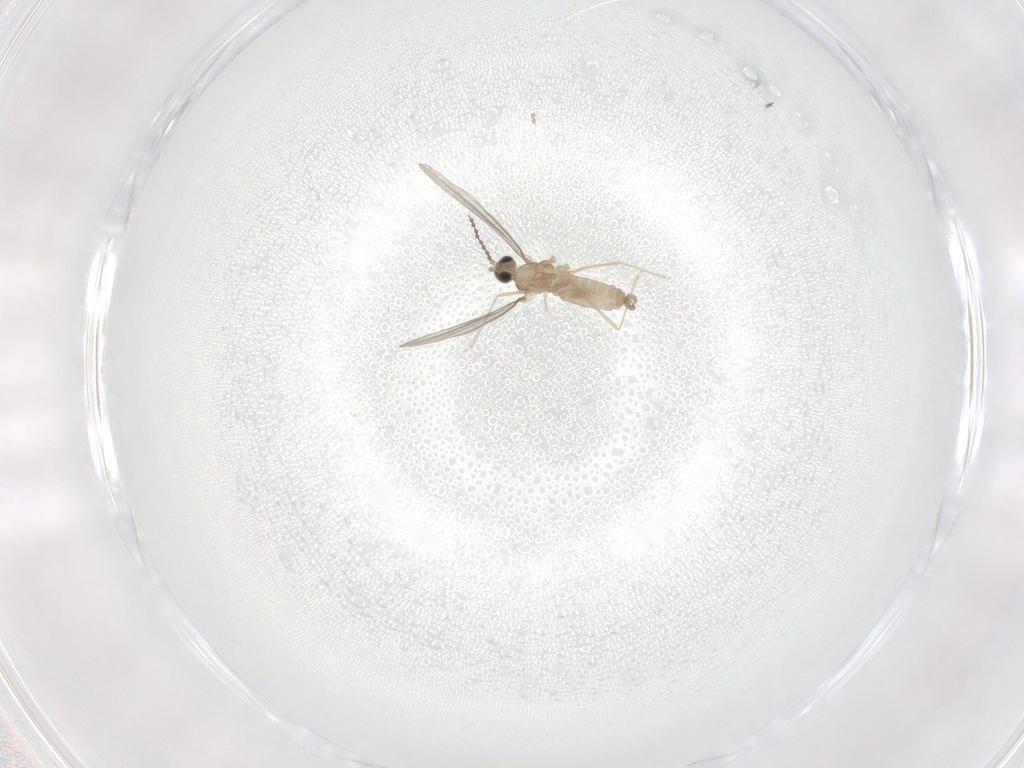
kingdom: Animalia
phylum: Arthropoda
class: Insecta
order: Diptera
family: Cecidomyiidae
